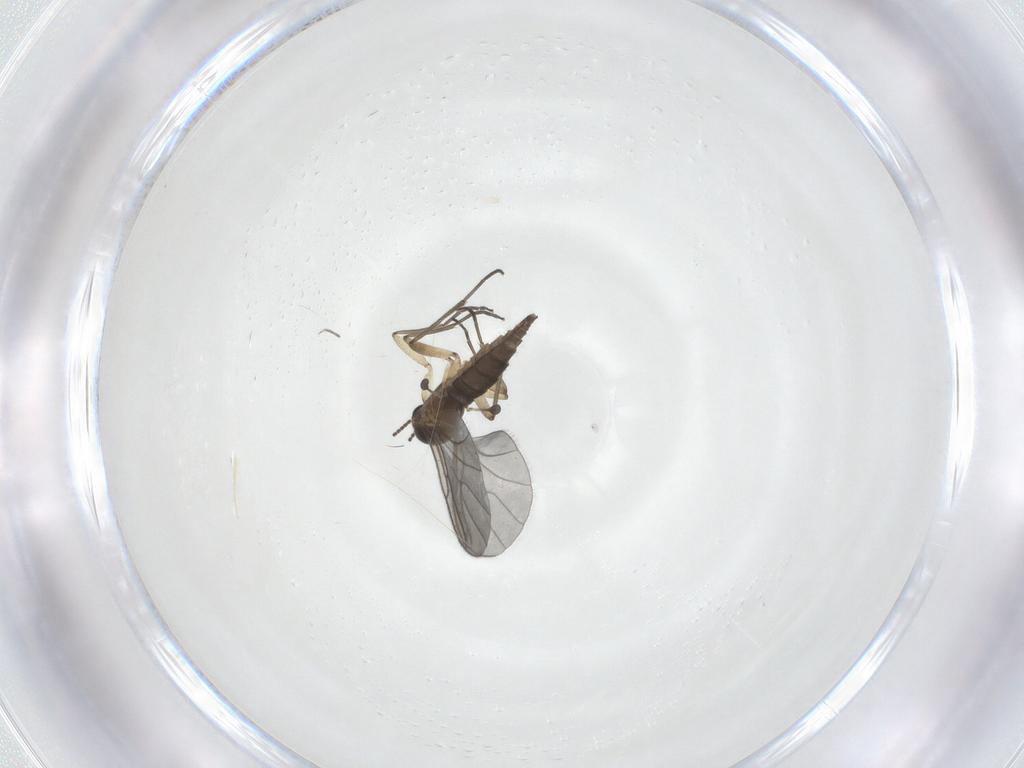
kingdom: Animalia
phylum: Arthropoda
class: Insecta
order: Diptera
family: Sciaridae
